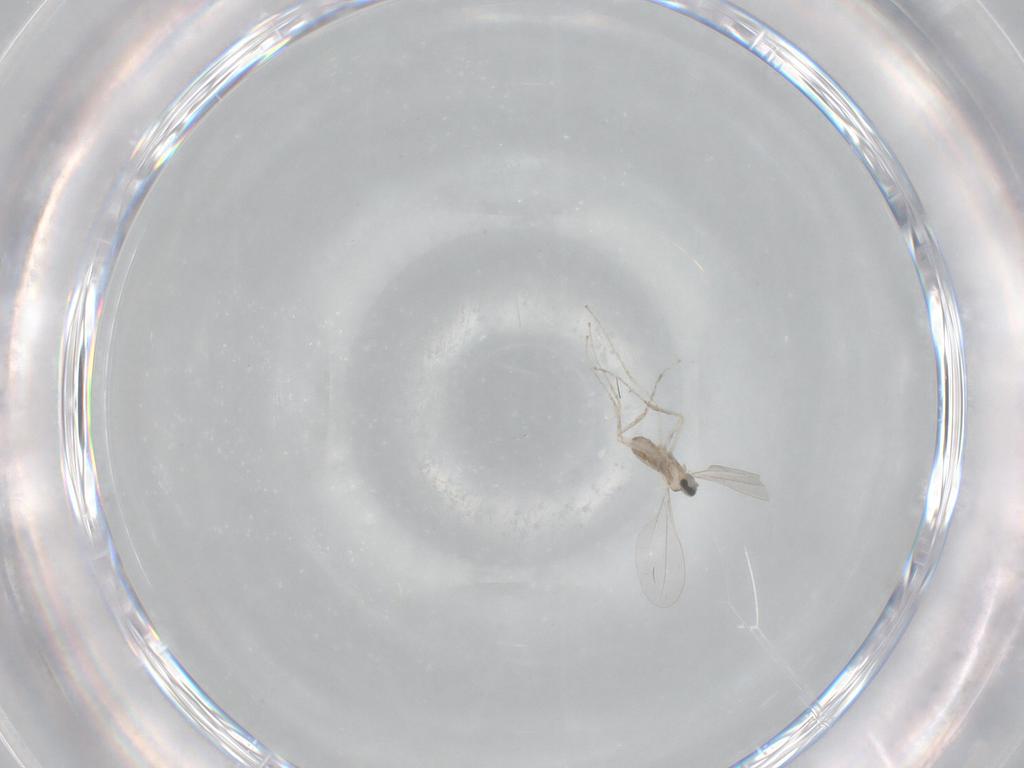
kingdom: Animalia
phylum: Arthropoda
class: Insecta
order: Diptera
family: Cecidomyiidae
